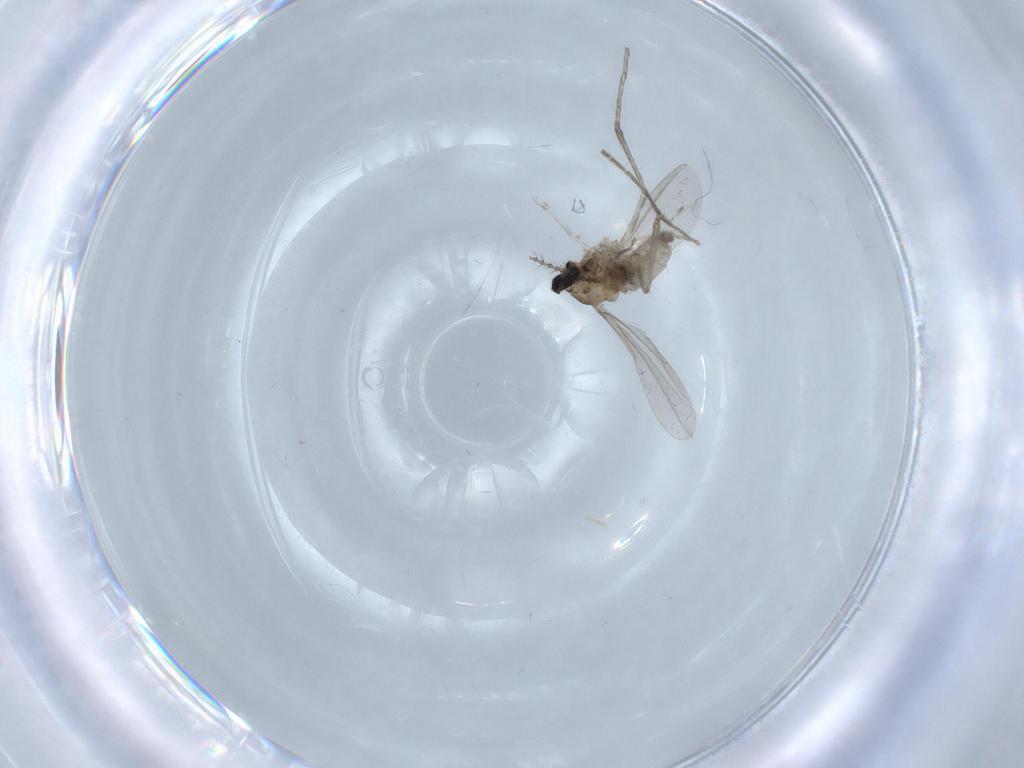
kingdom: Animalia
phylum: Arthropoda
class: Insecta
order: Diptera
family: Cecidomyiidae
